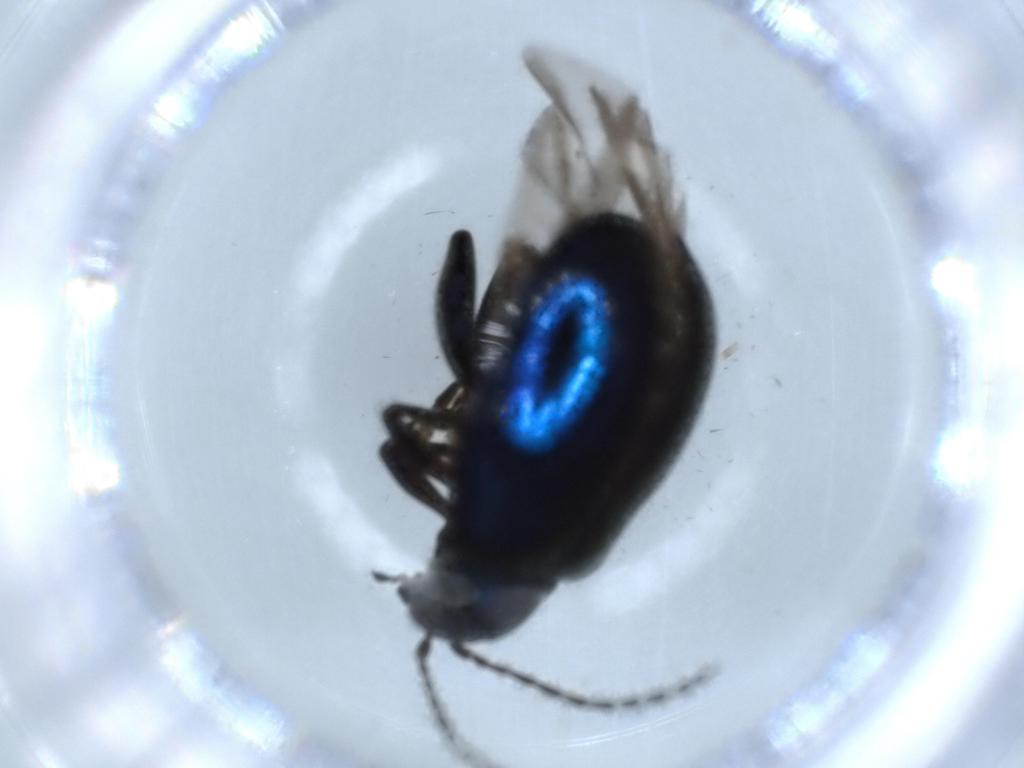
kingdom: Animalia
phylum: Arthropoda
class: Insecta
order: Coleoptera
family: Chrysomelidae
